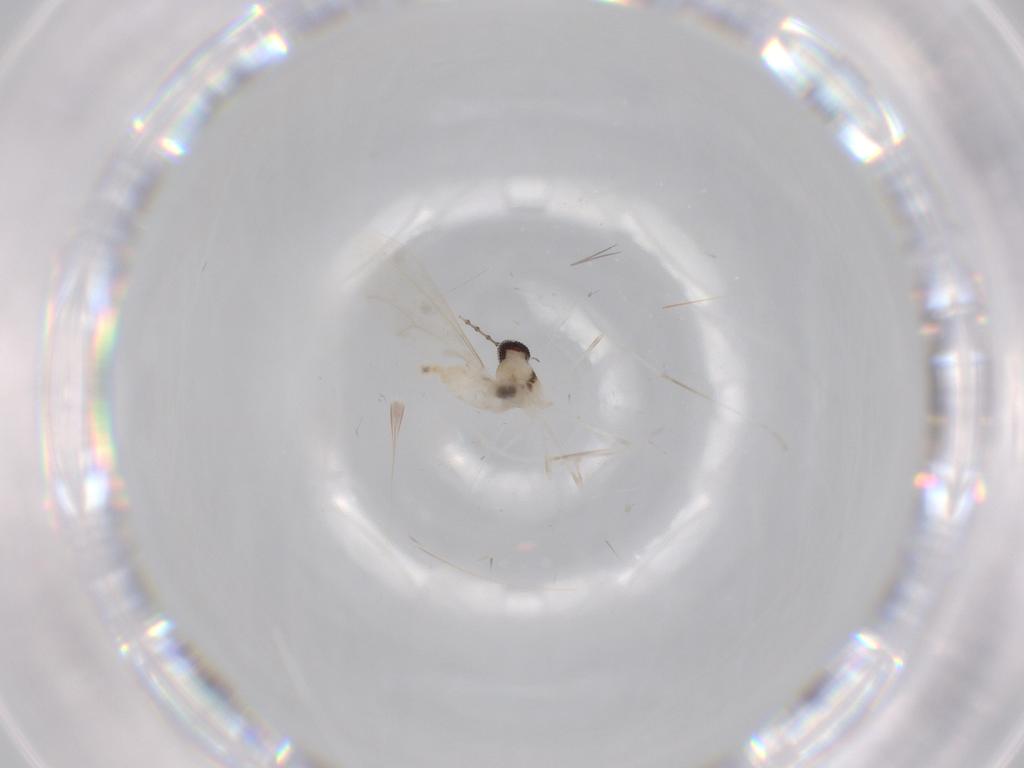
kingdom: Animalia
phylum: Arthropoda
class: Insecta
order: Diptera
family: Cecidomyiidae
